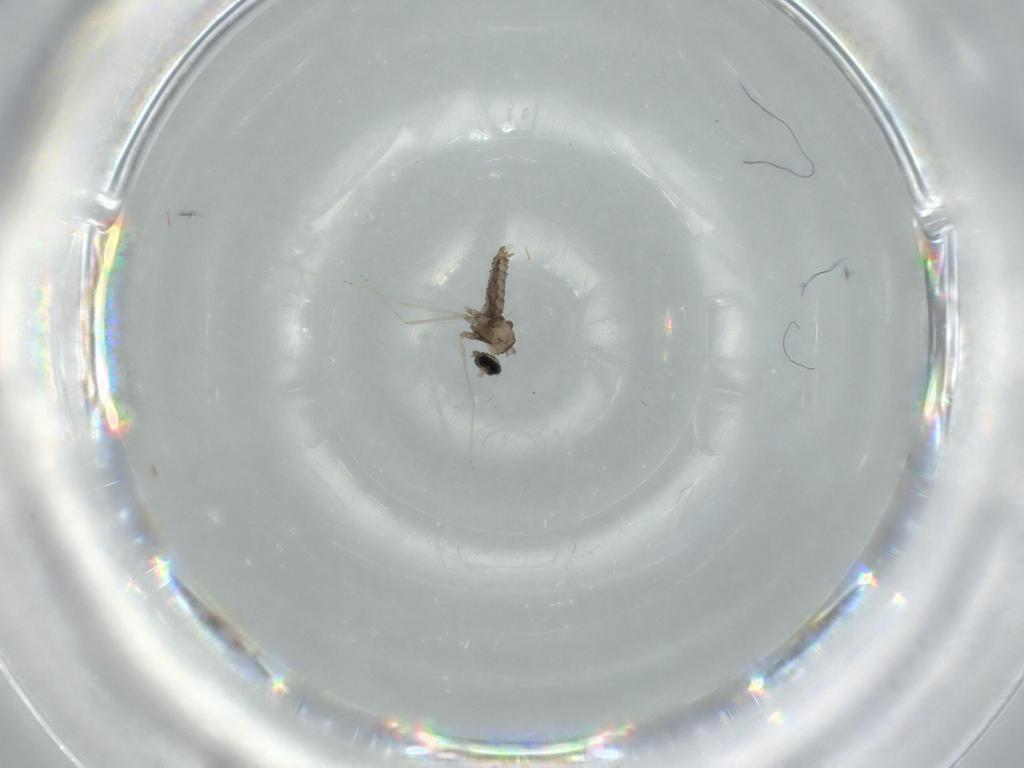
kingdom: Animalia
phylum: Arthropoda
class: Insecta
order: Diptera
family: Cecidomyiidae
